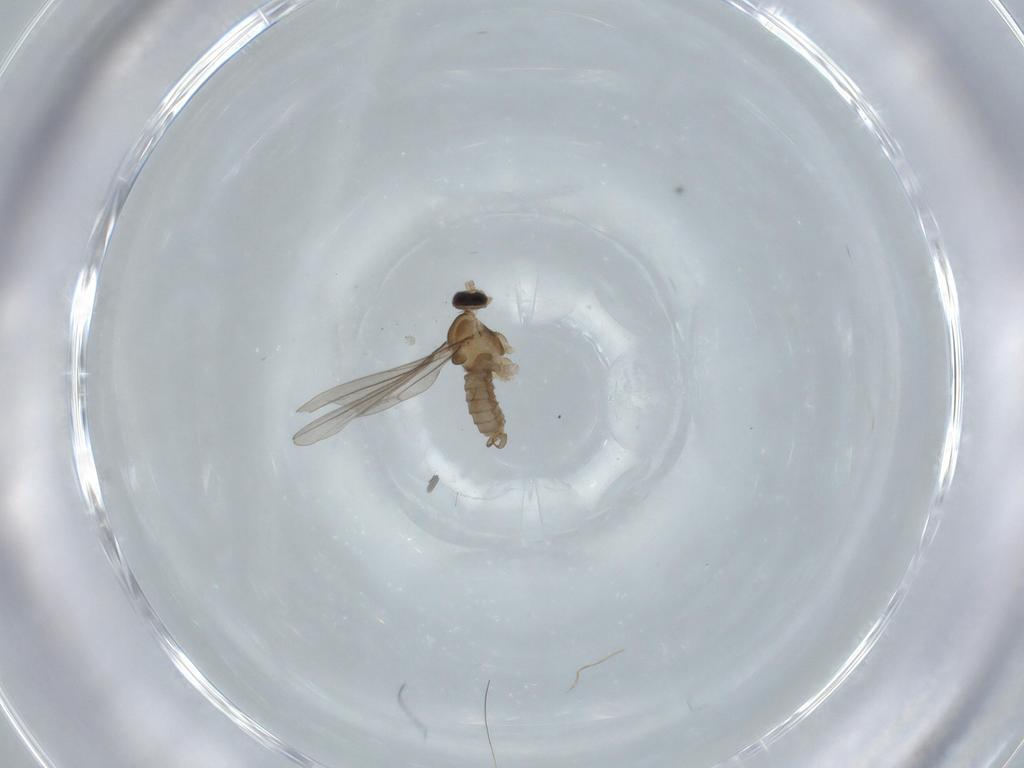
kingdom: Animalia
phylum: Arthropoda
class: Insecta
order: Diptera
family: Cecidomyiidae
